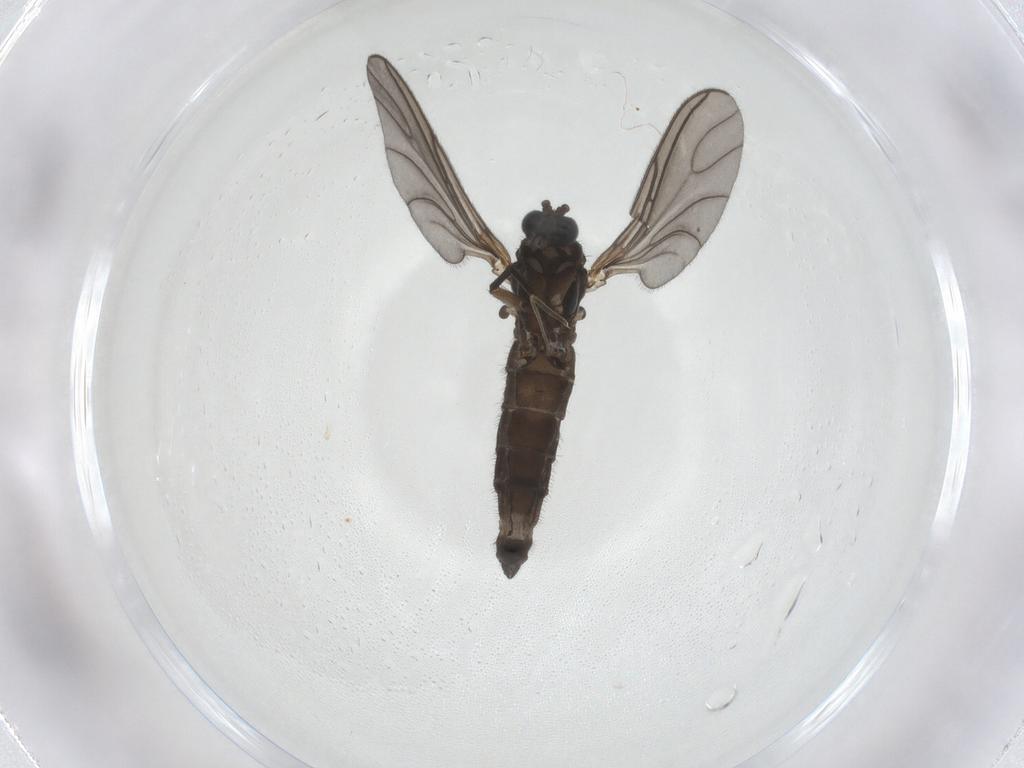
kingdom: Animalia
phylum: Arthropoda
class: Insecta
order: Diptera
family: Sciaridae
